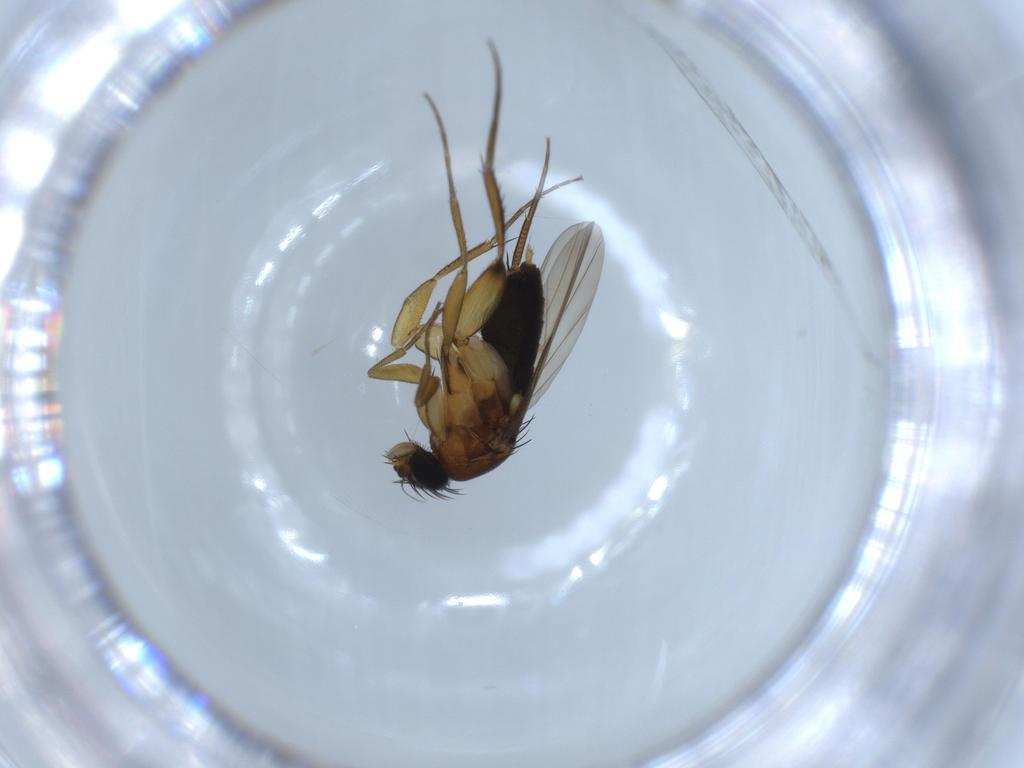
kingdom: Animalia
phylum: Arthropoda
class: Insecta
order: Diptera
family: Phoridae
